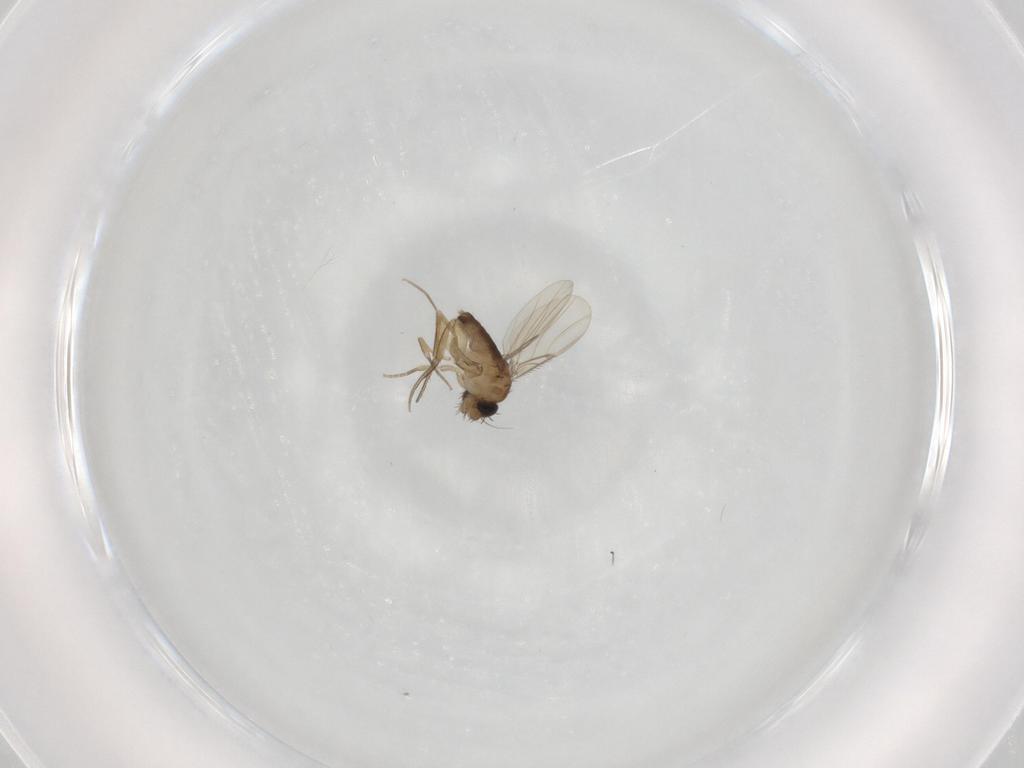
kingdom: Animalia
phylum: Arthropoda
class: Insecta
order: Diptera
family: Phoridae
